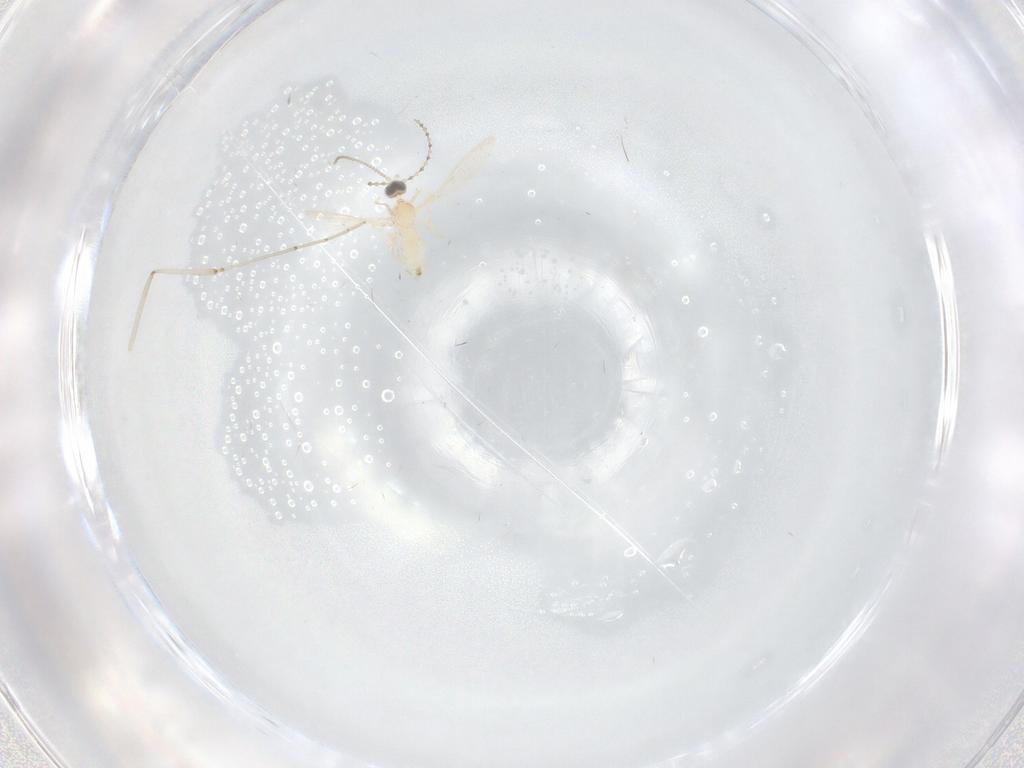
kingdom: Animalia
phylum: Arthropoda
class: Insecta
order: Diptera
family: Cecidomyiidae
